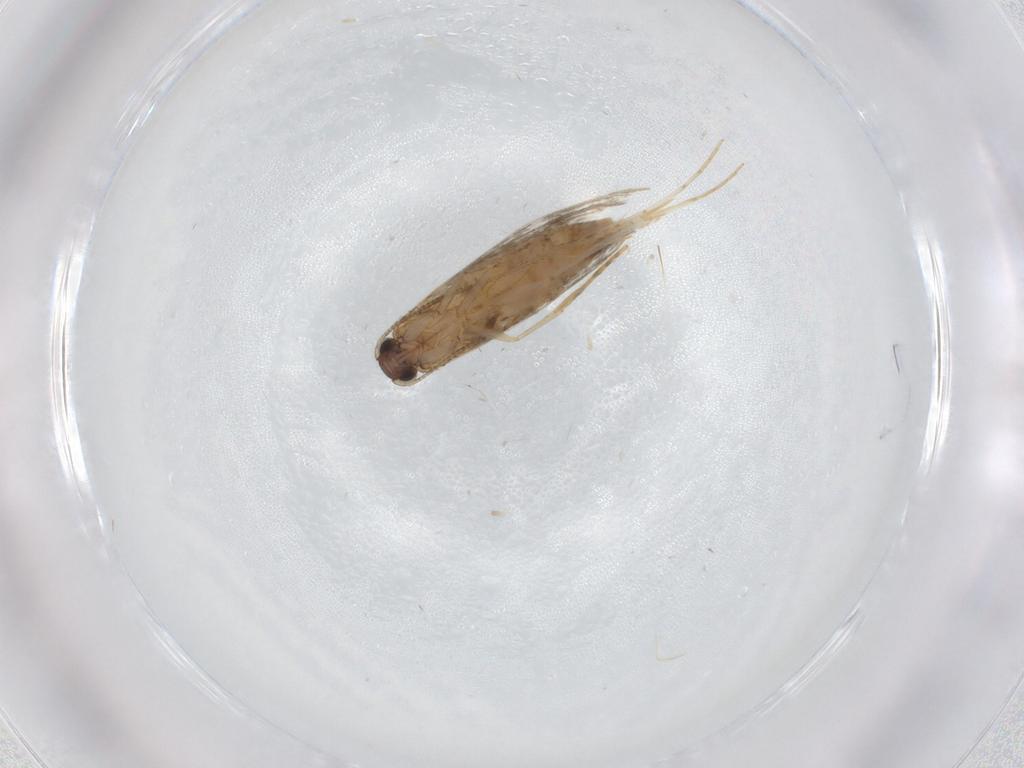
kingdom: Animalia
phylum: Arthropoda
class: Insecta
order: Lepidoptera
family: Tineidae
